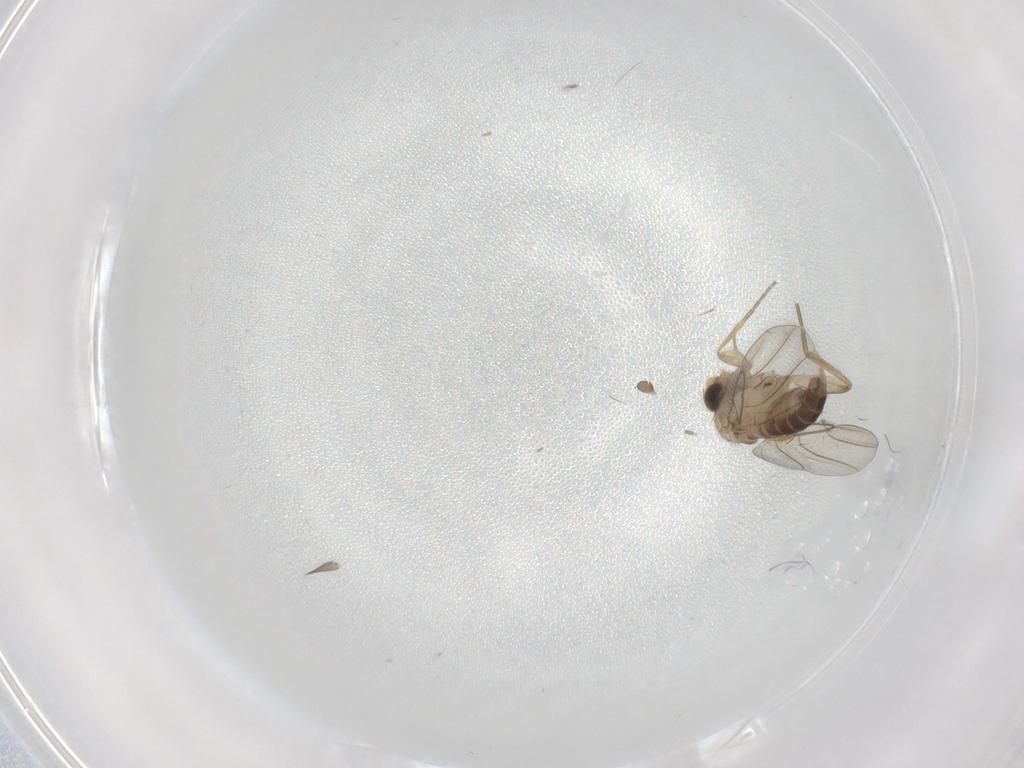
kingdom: Animalia
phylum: Arthropoda
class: Insecta
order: Diptera
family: Ceratopogonidae
